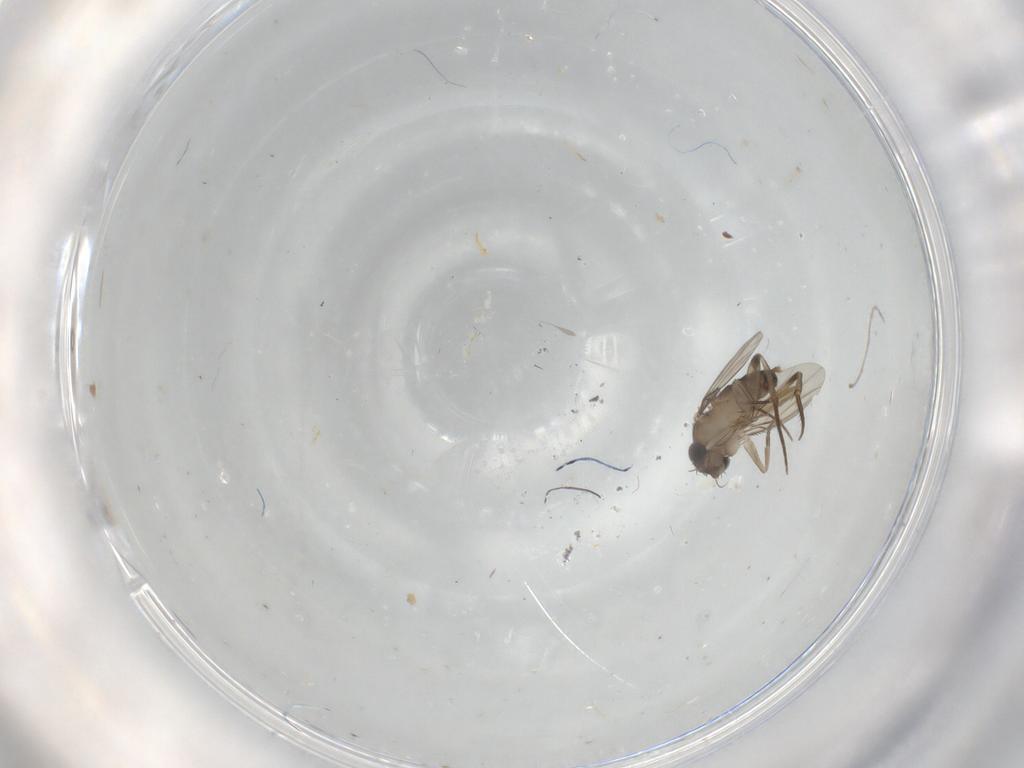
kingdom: Animalia
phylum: Arthropoda
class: Insecta
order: Diptera
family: Phoridae
